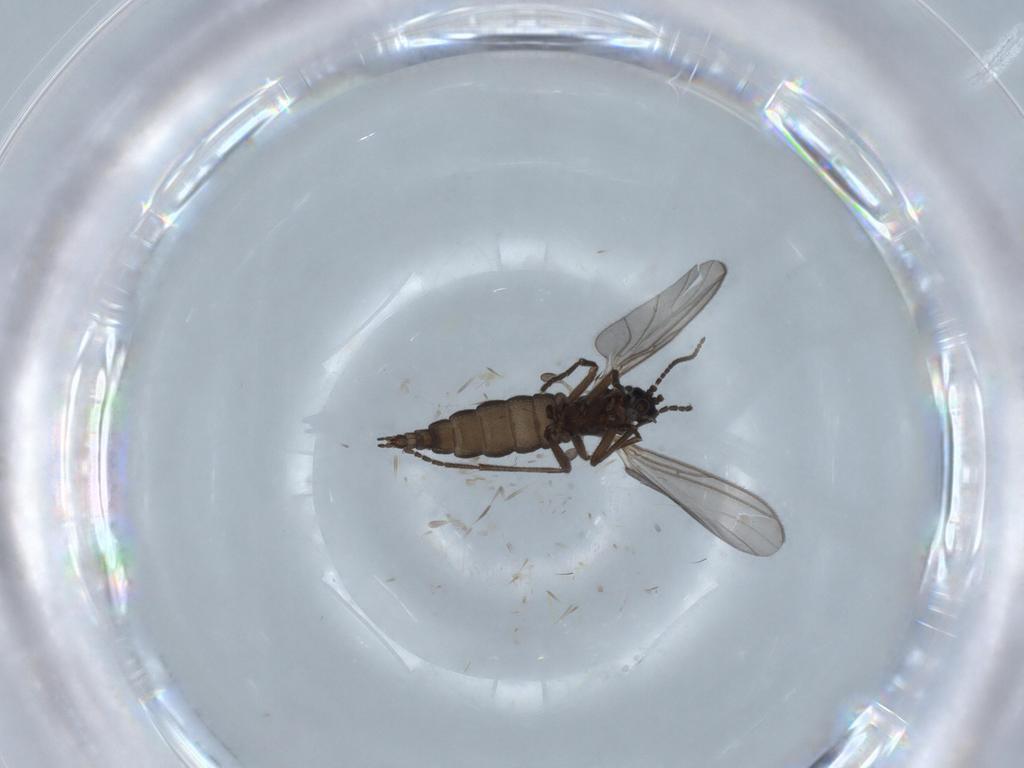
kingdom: Animalia
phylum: Arthropoda
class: Insecta
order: Diptera
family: Sciaridae
